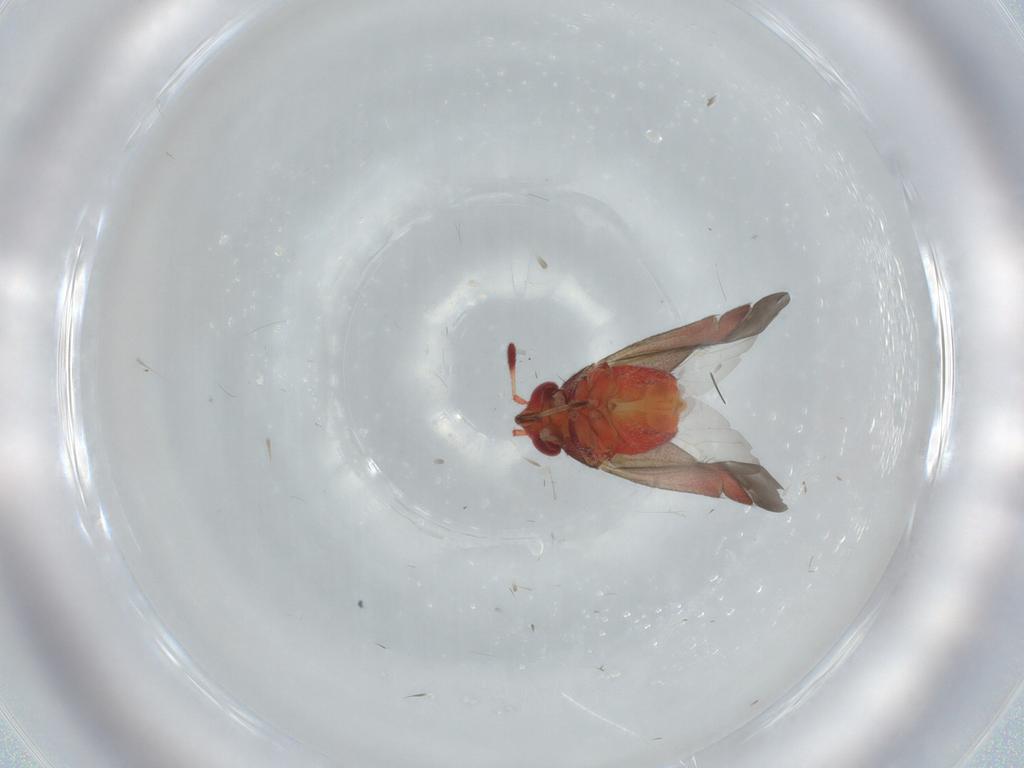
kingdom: Animalia
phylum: Arthropoda
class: Insecta
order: Hemiptera
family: Miridae
